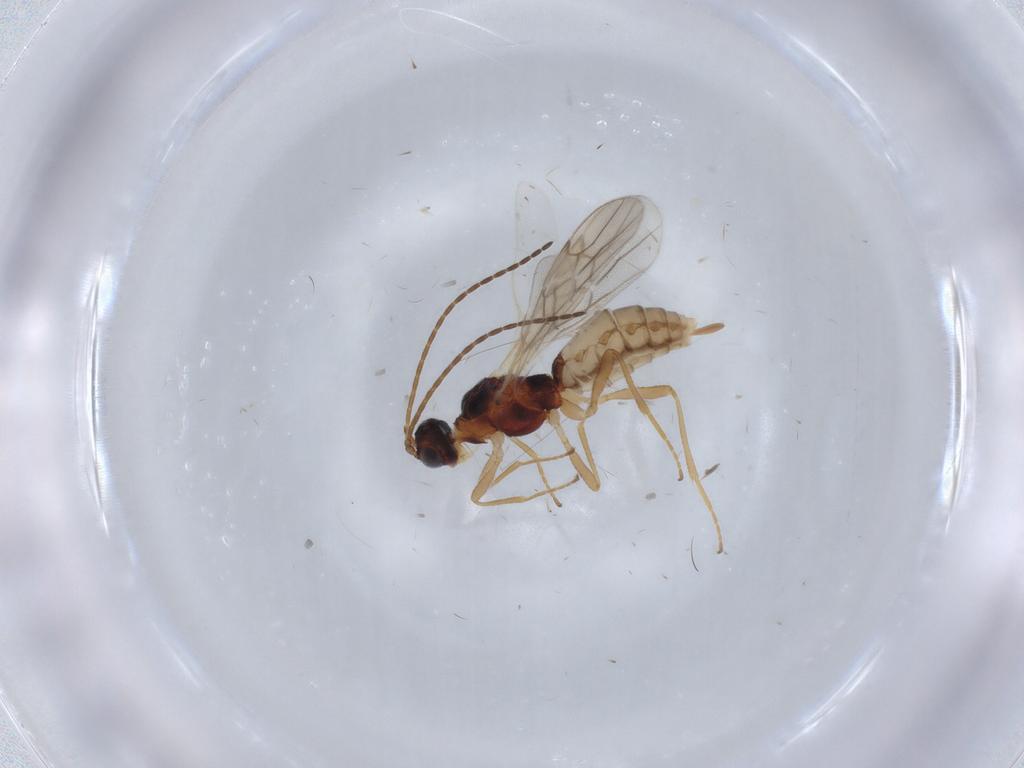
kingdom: Animalia
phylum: Arthropoda
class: Insecta
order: Hymenoptera
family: Braconidae
